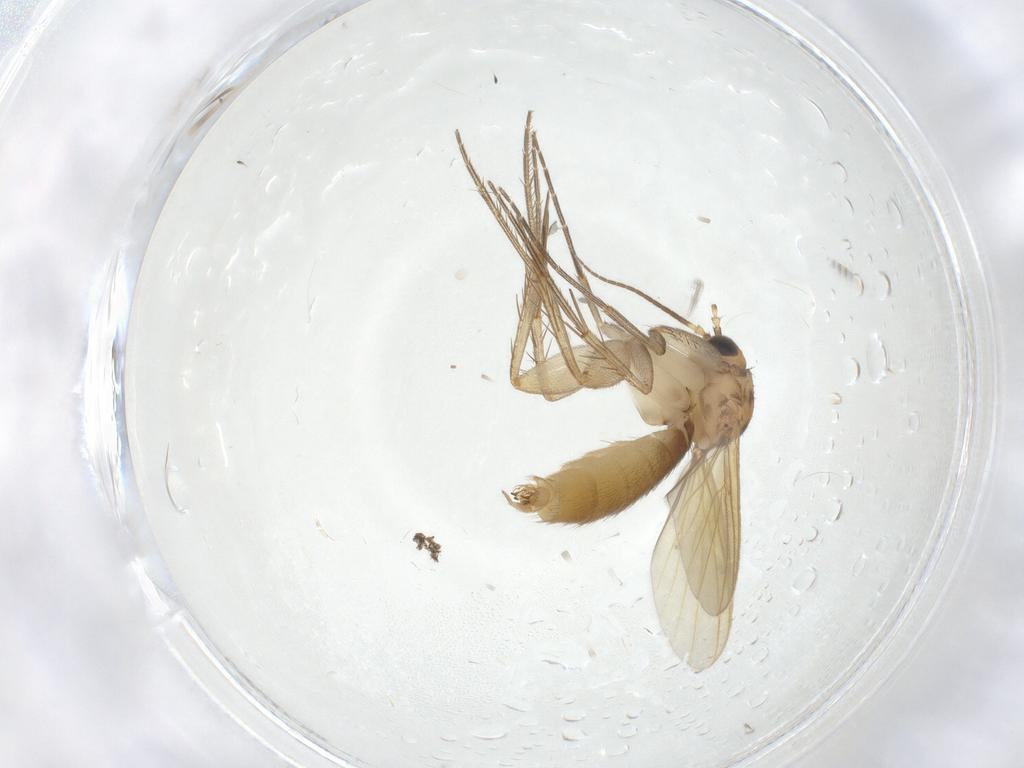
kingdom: Animalia
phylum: Arthropoda
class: Insecta
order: Diptera
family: Mycetophilidae
